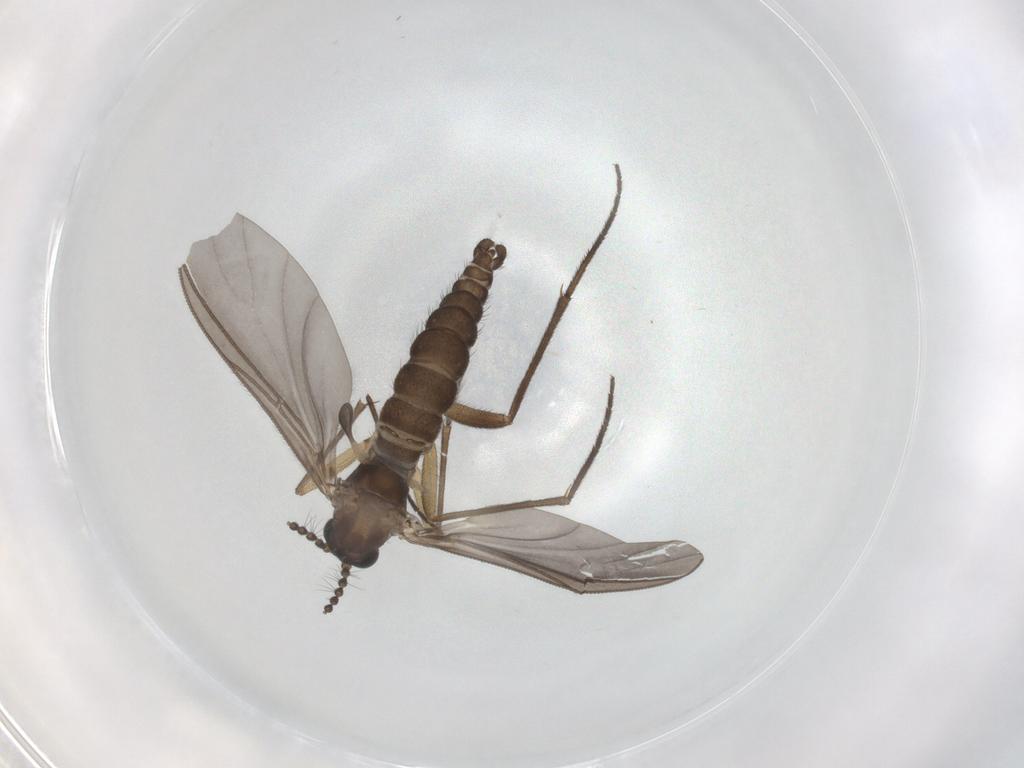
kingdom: Animalia
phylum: Arthropoda
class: Insecta
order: Diptera
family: Sciaridae
